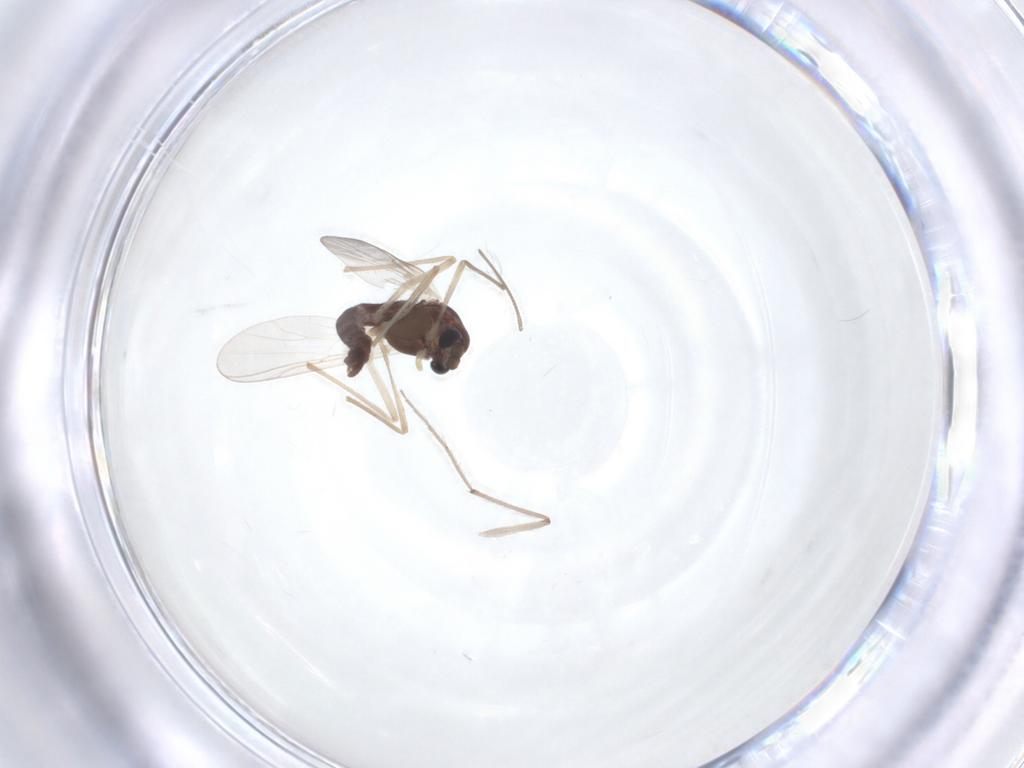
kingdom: Animalia
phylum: Arthropoda
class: Insecta
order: Diptera
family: Chironomidae
